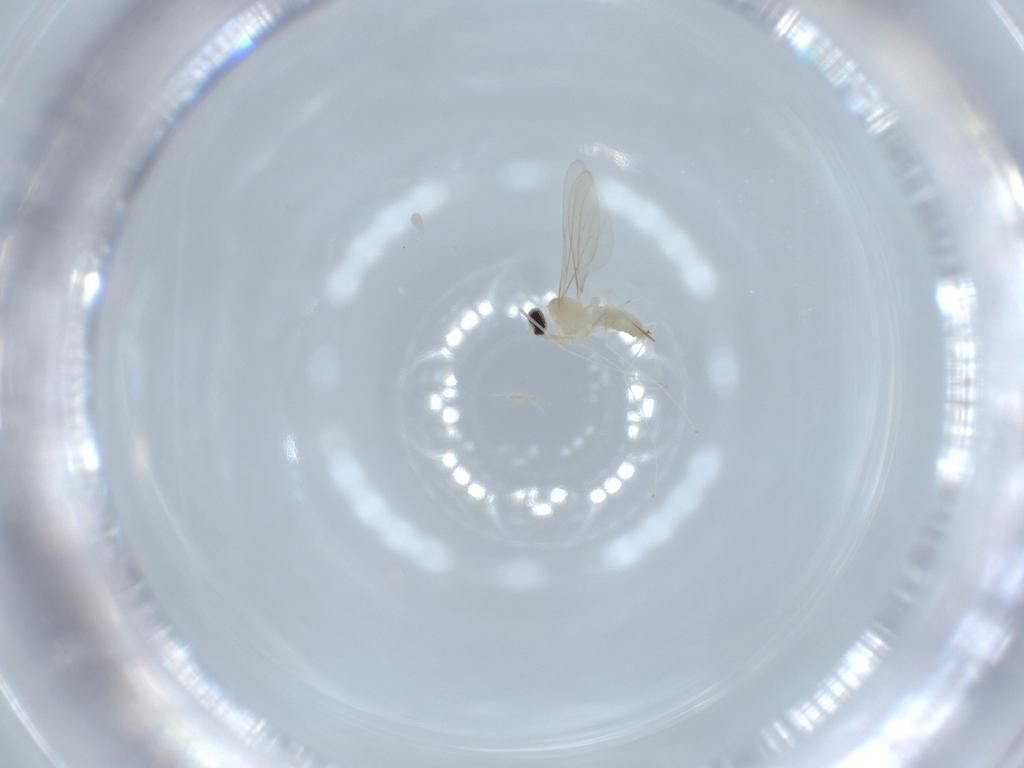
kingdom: Animalia
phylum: Arthropoda
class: Insecta
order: Diptera
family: Cecidomyiidae
